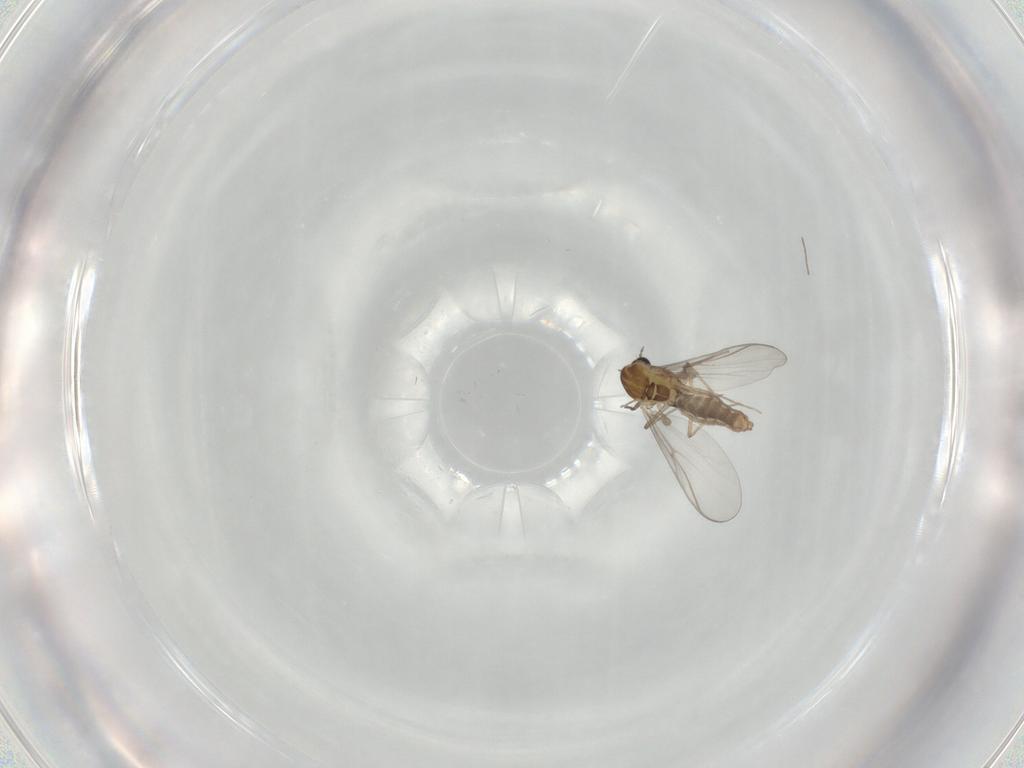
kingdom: Animalia
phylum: Arthropoda
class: Insecta
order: Diptera
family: Chironomidae
